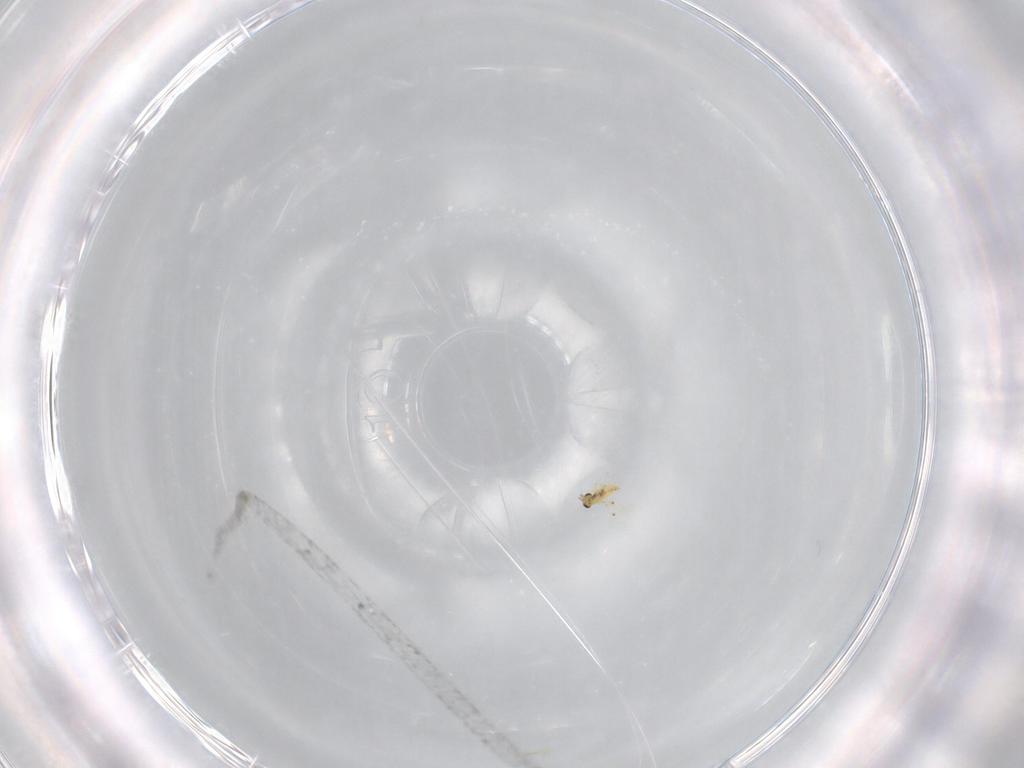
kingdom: Animalia
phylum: Arthropoda
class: Insecta
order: Hymenoptera
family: Trichogrammatidae
